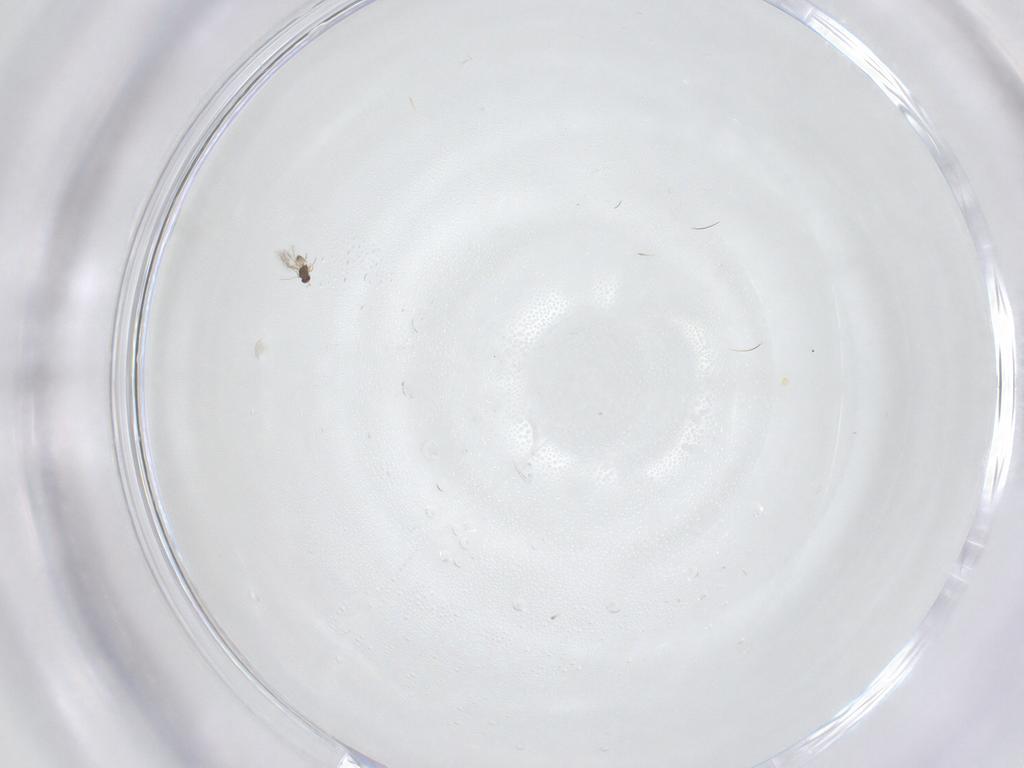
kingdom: Animalia
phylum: Arthropoda
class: Insecta
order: Hymenoptera
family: Mymaridae
